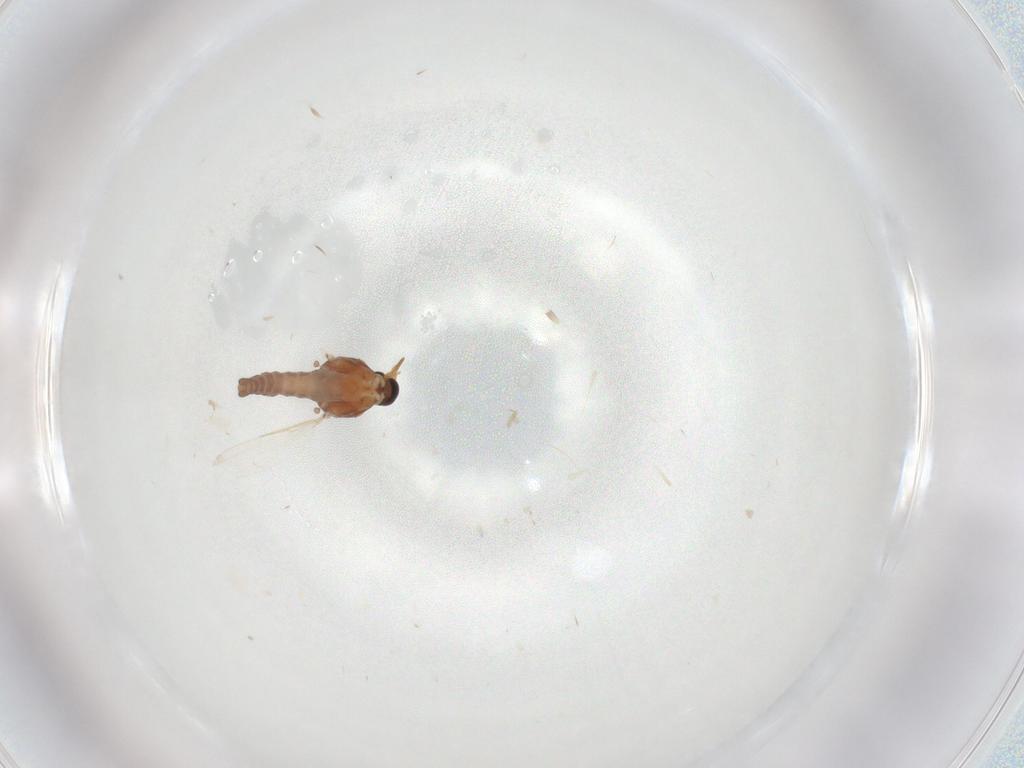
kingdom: Animalia
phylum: Arthropoda
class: Insecta
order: Diptera
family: Ceratopogonidae
